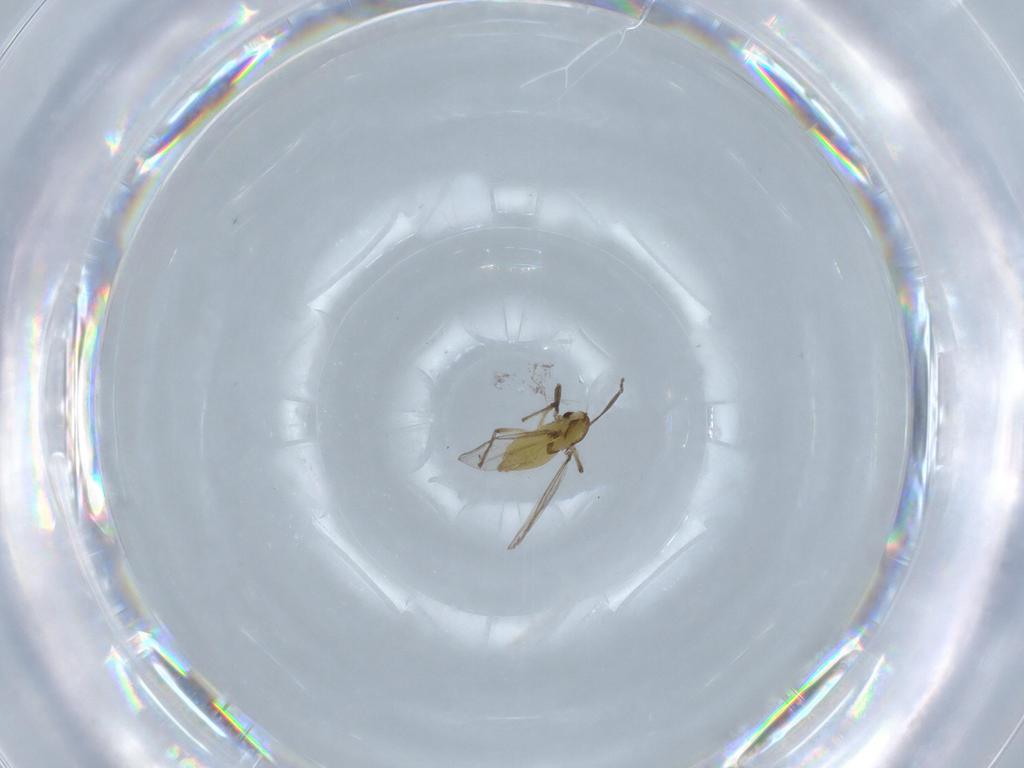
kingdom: Animalia
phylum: Arthropoda
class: Insecta
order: Diptera
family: Chironomidae
